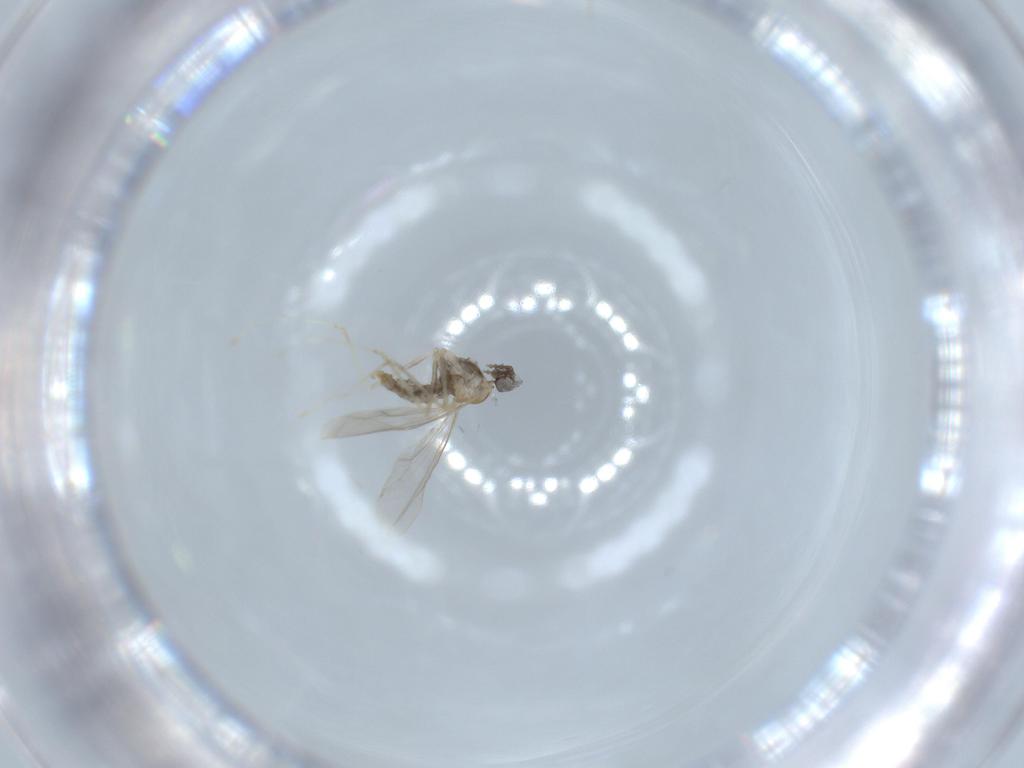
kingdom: Animalia
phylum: Arthropoda
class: Insecta
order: Diptera
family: Cecidomyiidae
